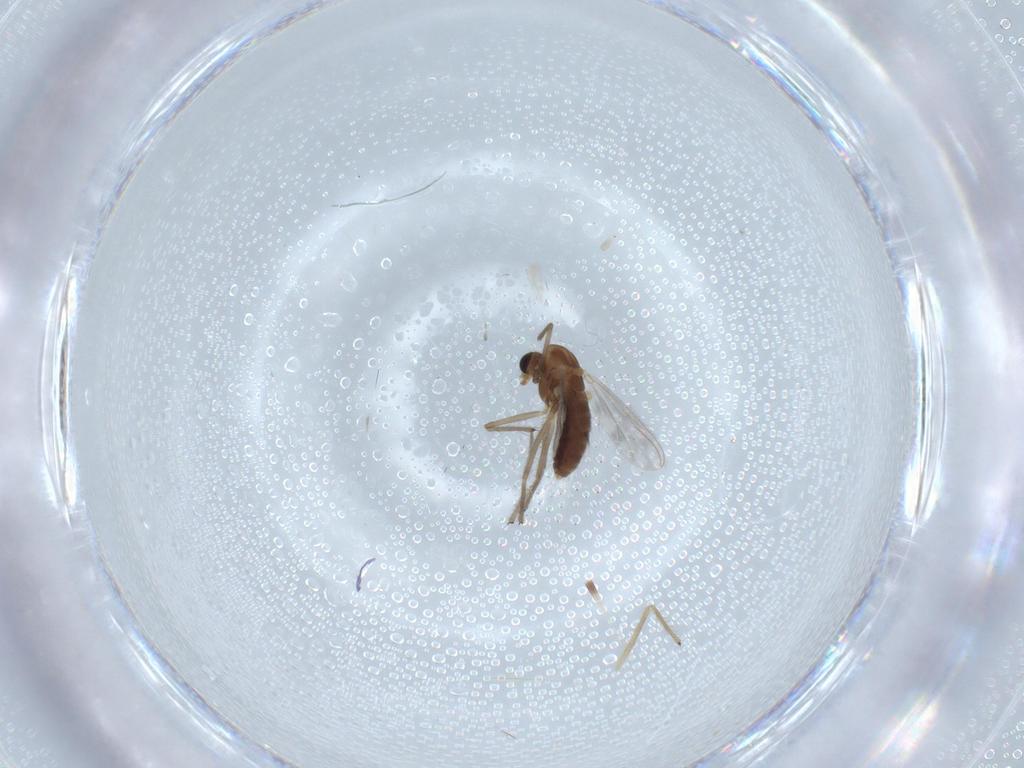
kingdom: Animalia
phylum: Arthropoda
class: Insecta
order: Diptera
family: Chironomidae
